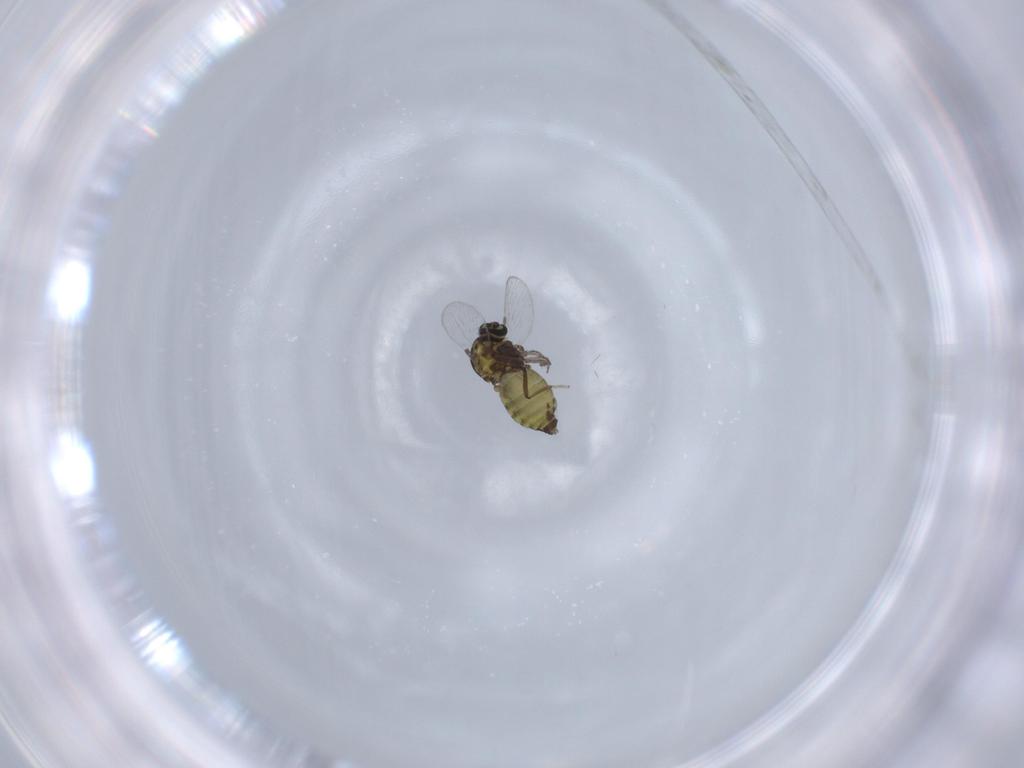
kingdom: Animalia
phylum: Arthropoda
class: Insecta
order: Diptera
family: Ceratopogonidae
